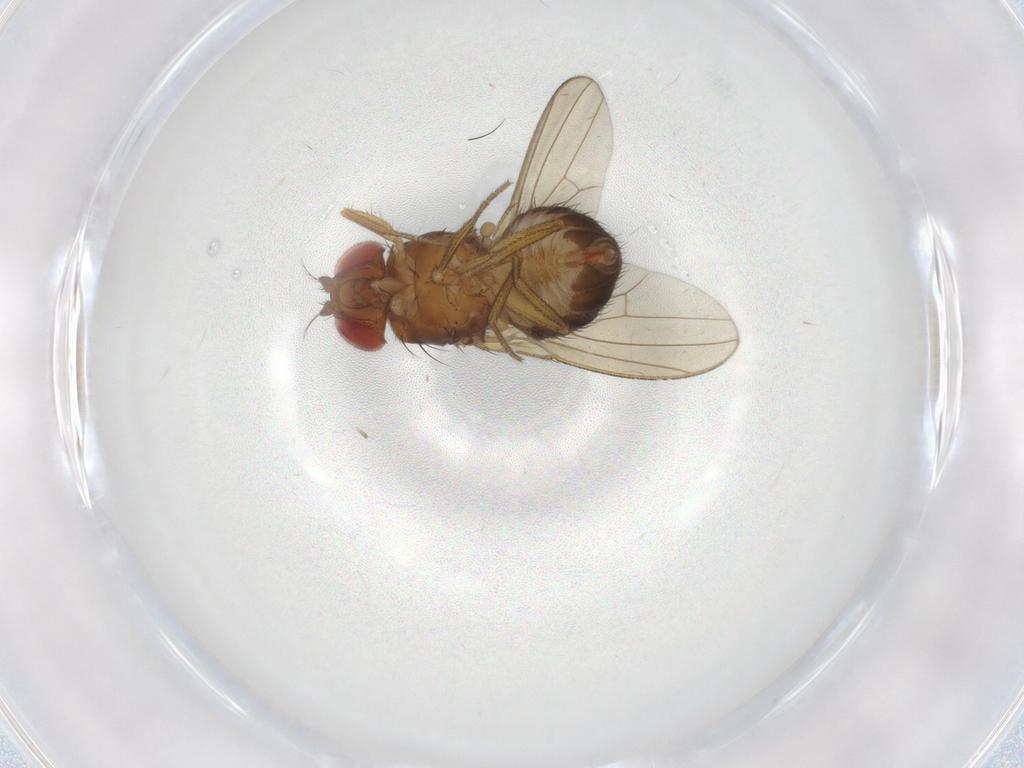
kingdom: Animalia
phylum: Arthropoda
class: Insecta
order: Diptera
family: Drosophilidae
